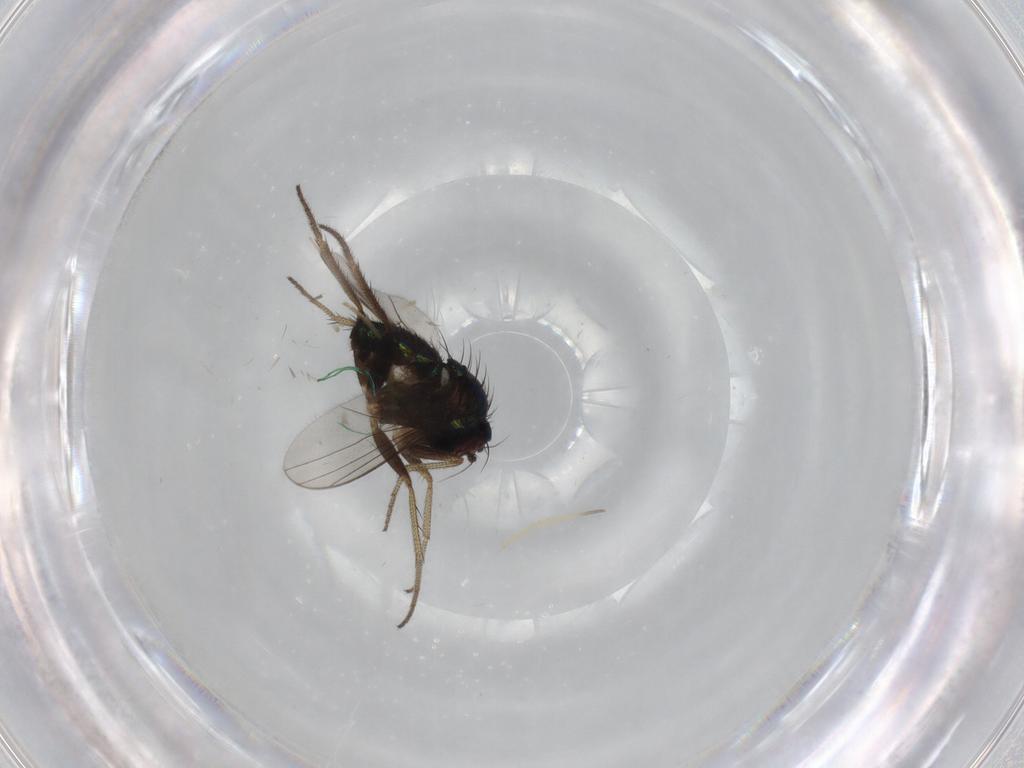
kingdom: Animalia
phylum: Arthropoda
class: Insecta
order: Diptera
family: Chironomidae
